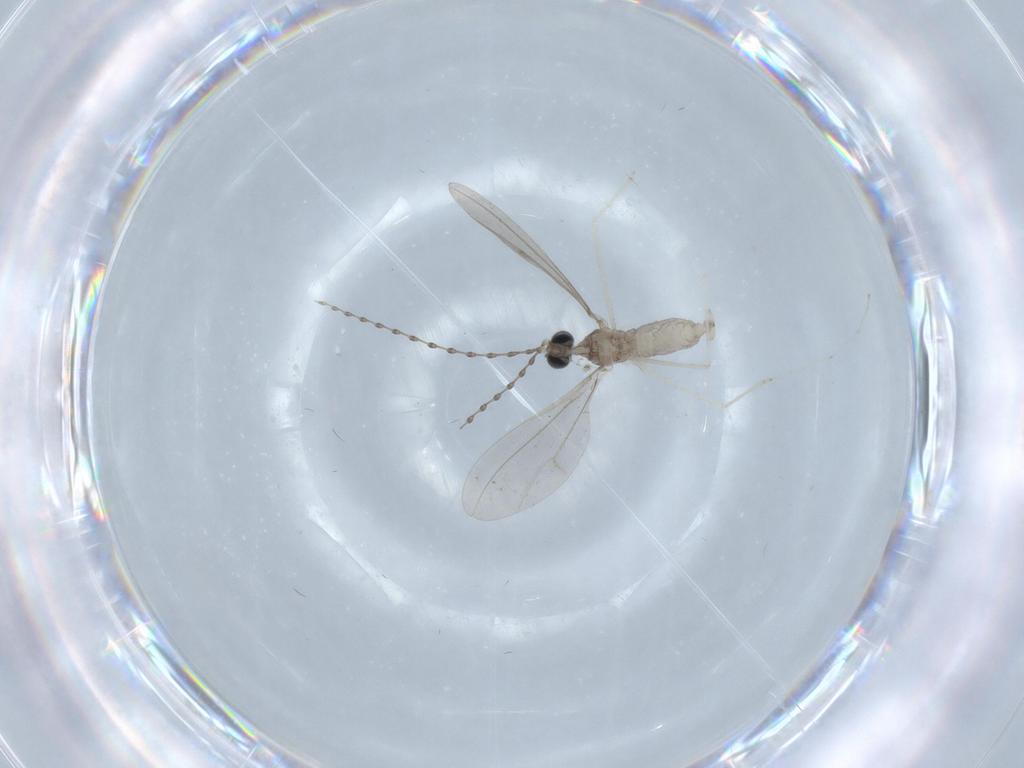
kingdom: Animalia
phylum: Arthropoda
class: Insecta
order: Diptera
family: Cecidomyiidae
